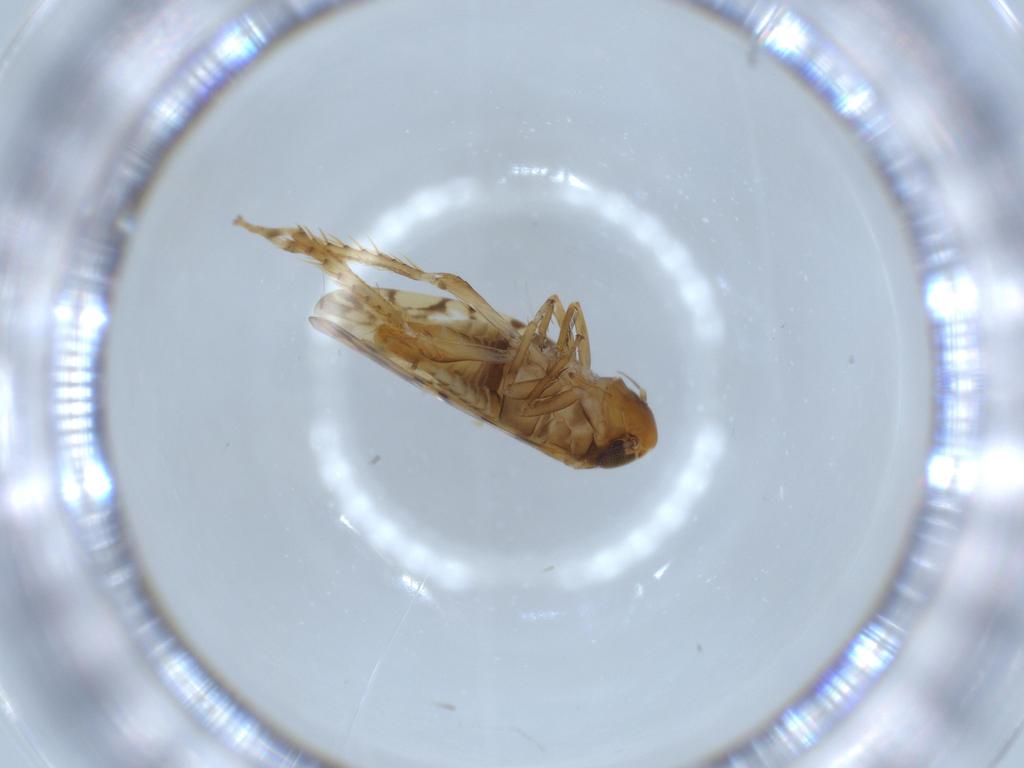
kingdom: Animalia
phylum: Arthropoda
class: Insecta
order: Hemiptera
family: Cicadellidae
